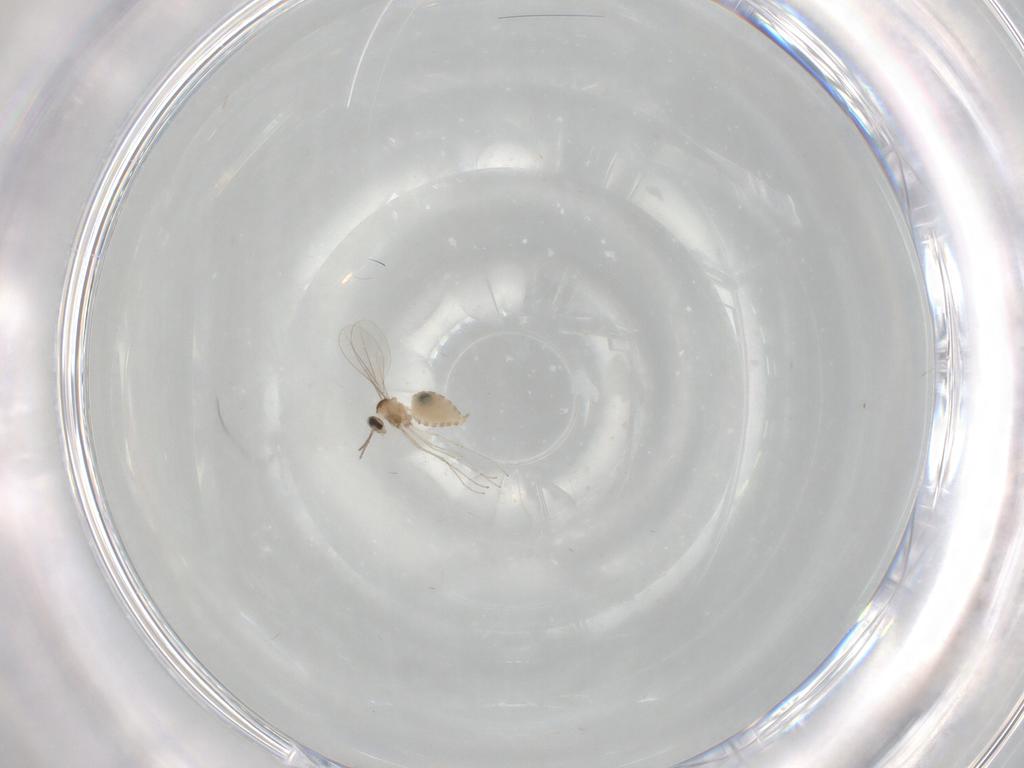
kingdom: Animalia
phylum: Arthropoda
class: Insecta
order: Diptera
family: Cecidomyiidae
